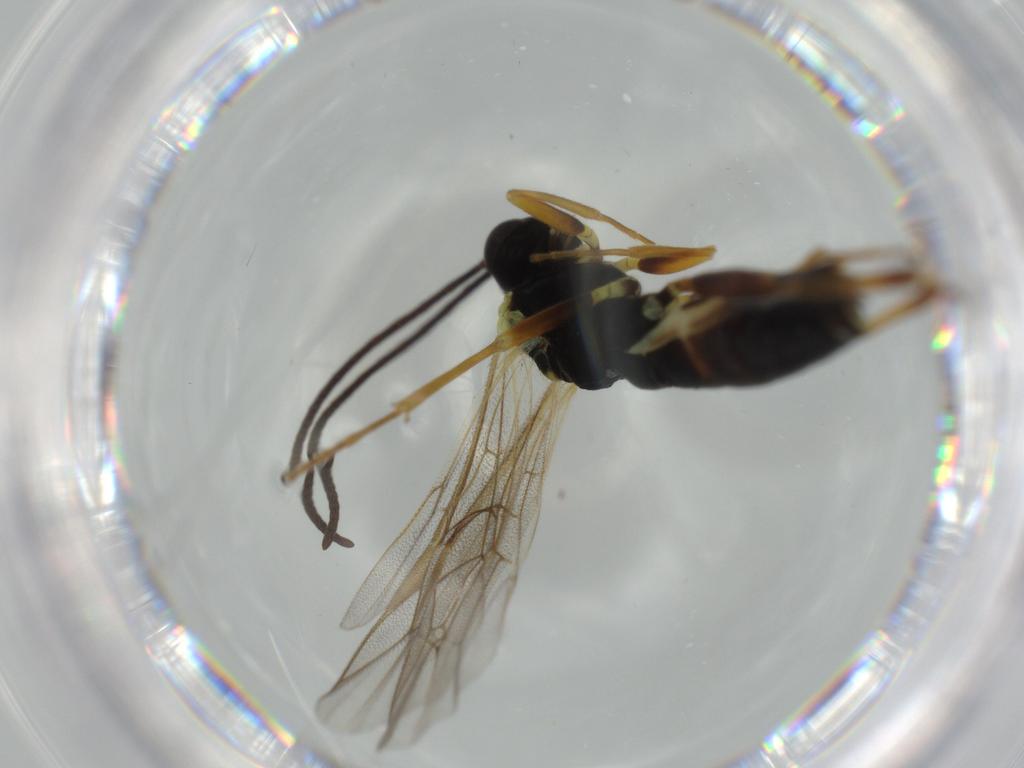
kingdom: Animalia
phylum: Arthropoda
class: Insecta
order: Hymenoptera
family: Ichneumonidae
